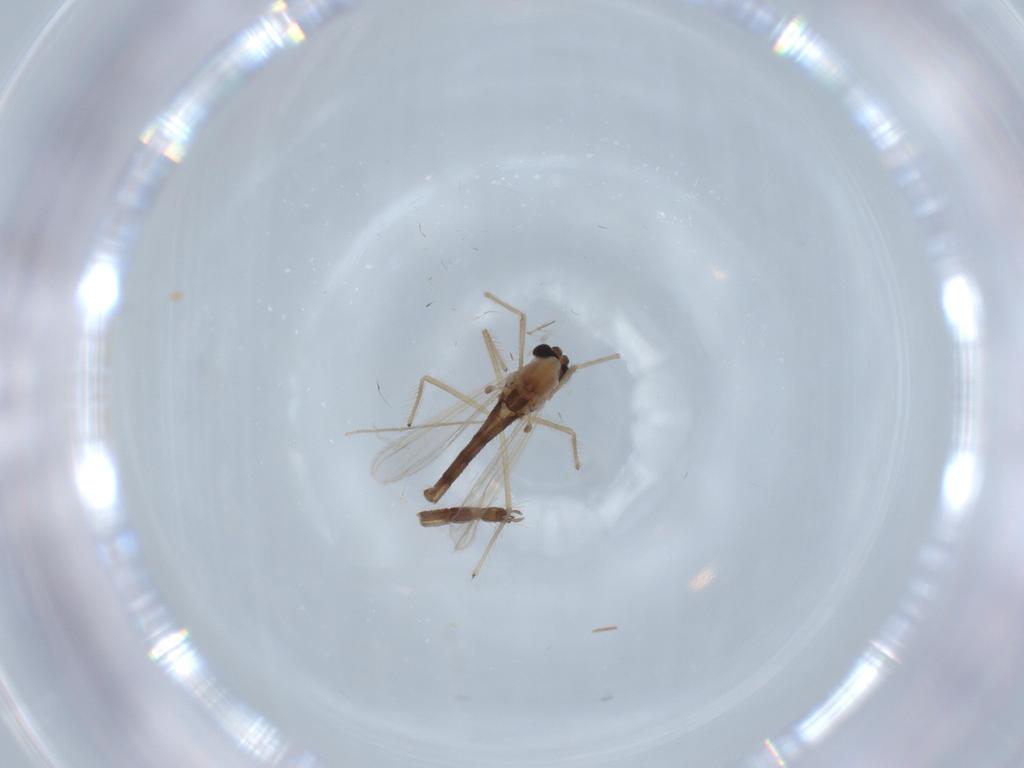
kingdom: Animalia
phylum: Arthropoda
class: Insecta
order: Diptera
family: Chironomidae
